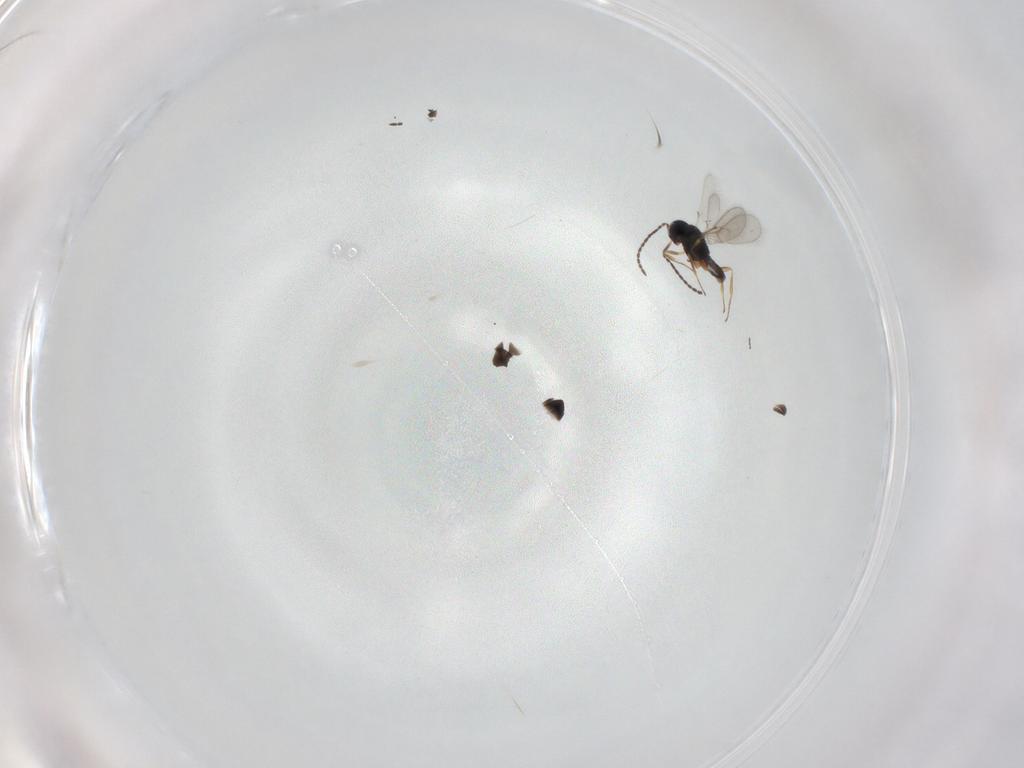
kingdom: Animalia
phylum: Arthropoda
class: Insecta
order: Hymenoptera
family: Scelionidae
